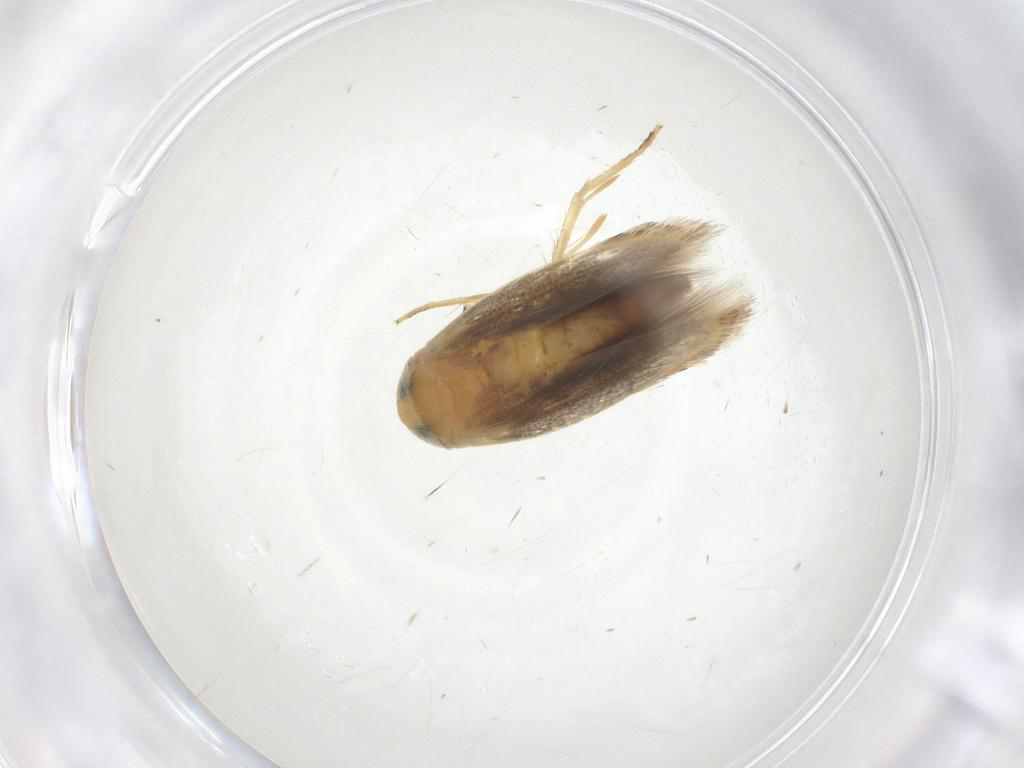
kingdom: Animalia
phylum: Arthropoda
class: Insecta
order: Lepidoptera
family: Opostegidae
